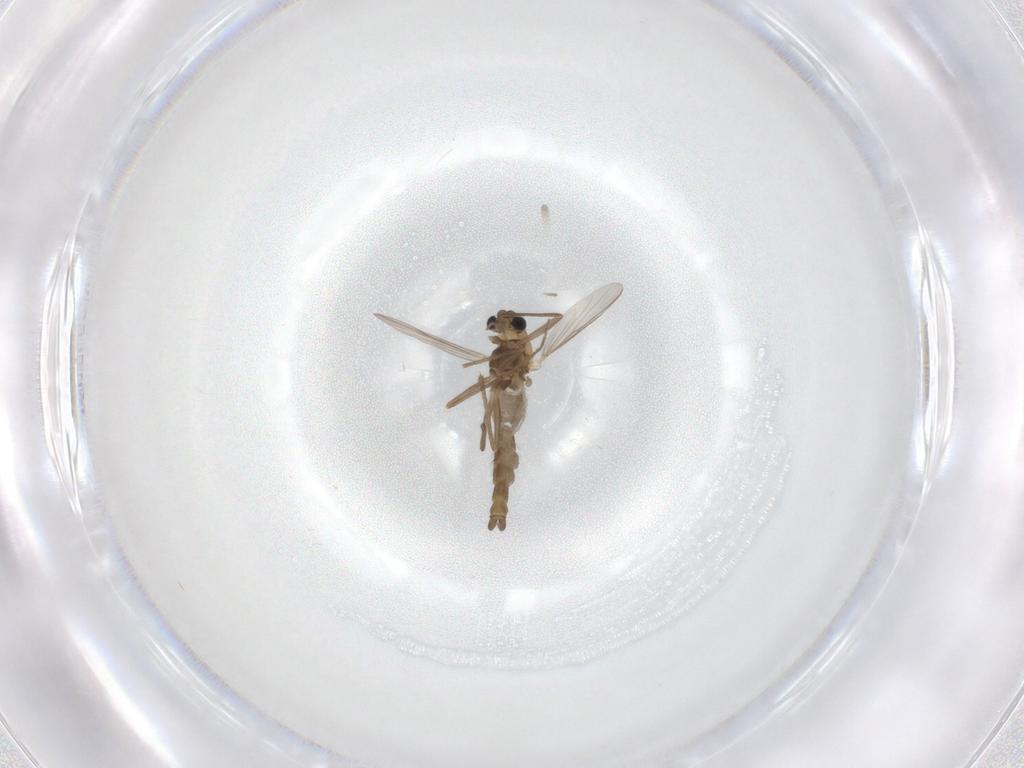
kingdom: Animalia
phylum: Arthropoda
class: Insecta
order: Diptera
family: Chironomidae
